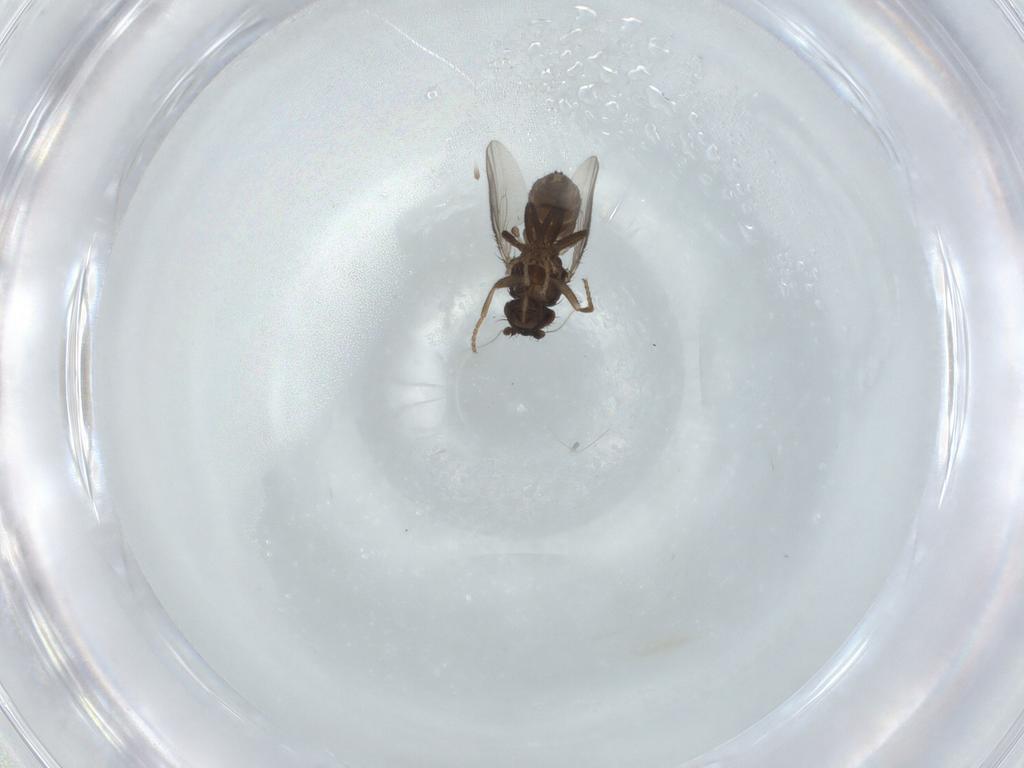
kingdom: Animalia
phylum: Arthropoda
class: Insecta
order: Diptera
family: Sphaeroceridae
